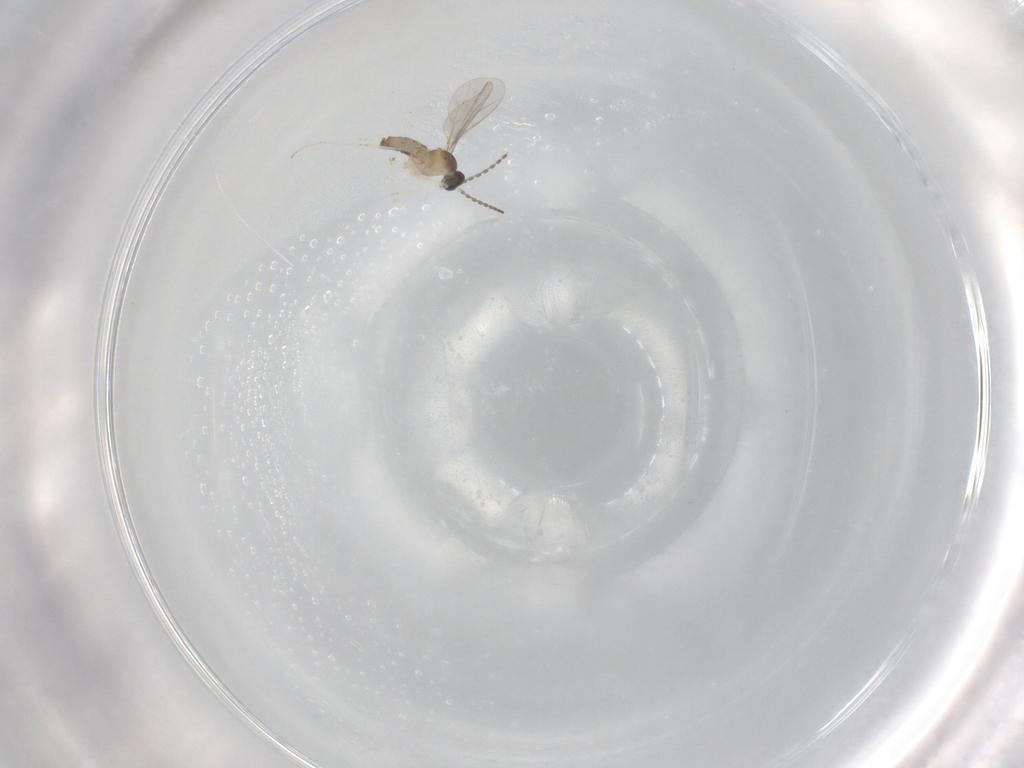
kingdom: Animalia
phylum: Arthropoda
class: Insecta
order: Diptera
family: Cecidomyiidae
